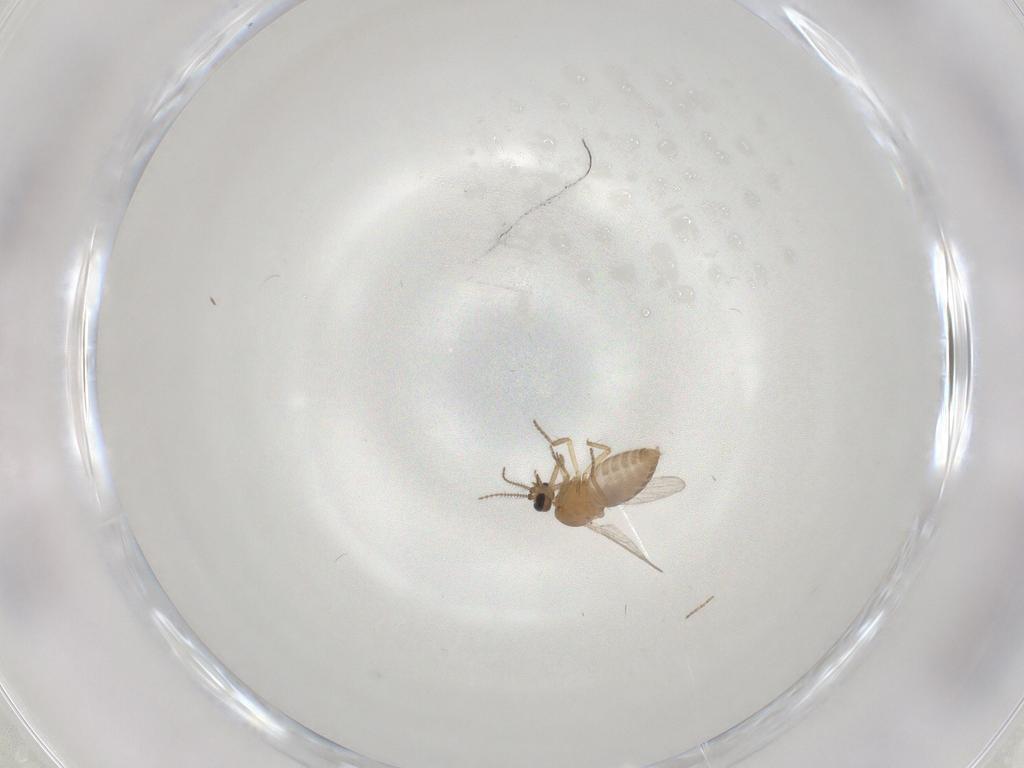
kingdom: Animalia
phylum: Arthropoda
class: Insecta
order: Diptera
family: Ceratopogonidae
